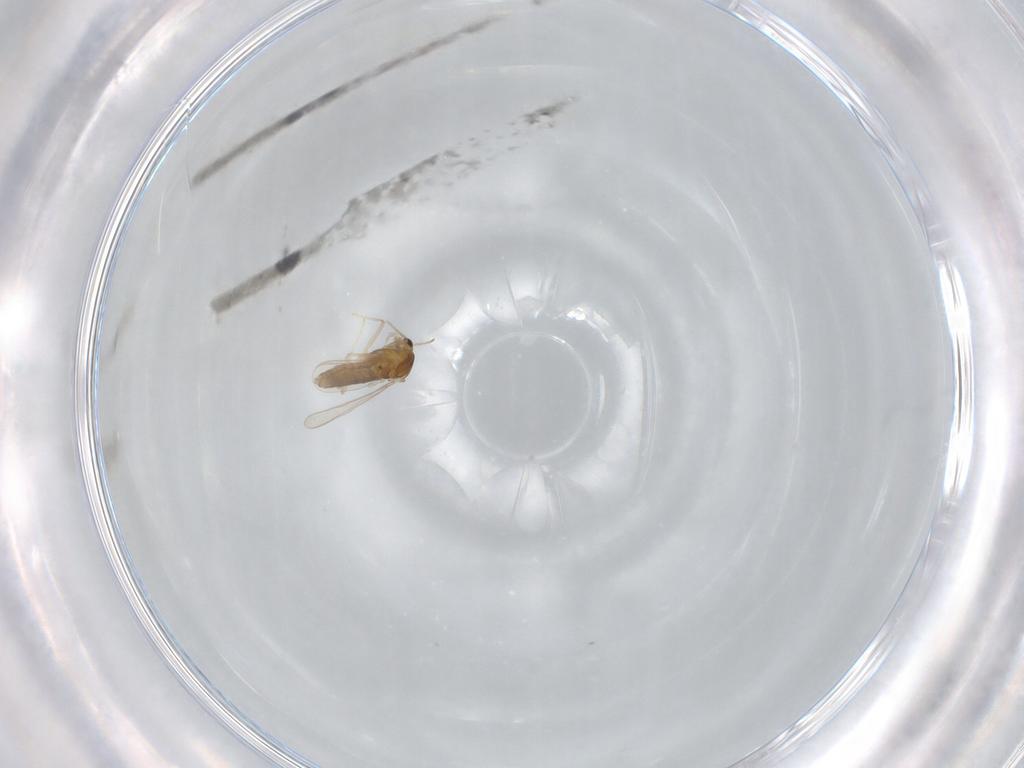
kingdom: Animalia
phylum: Arthropoda
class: Insecta
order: Diptera
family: Chironomidae
